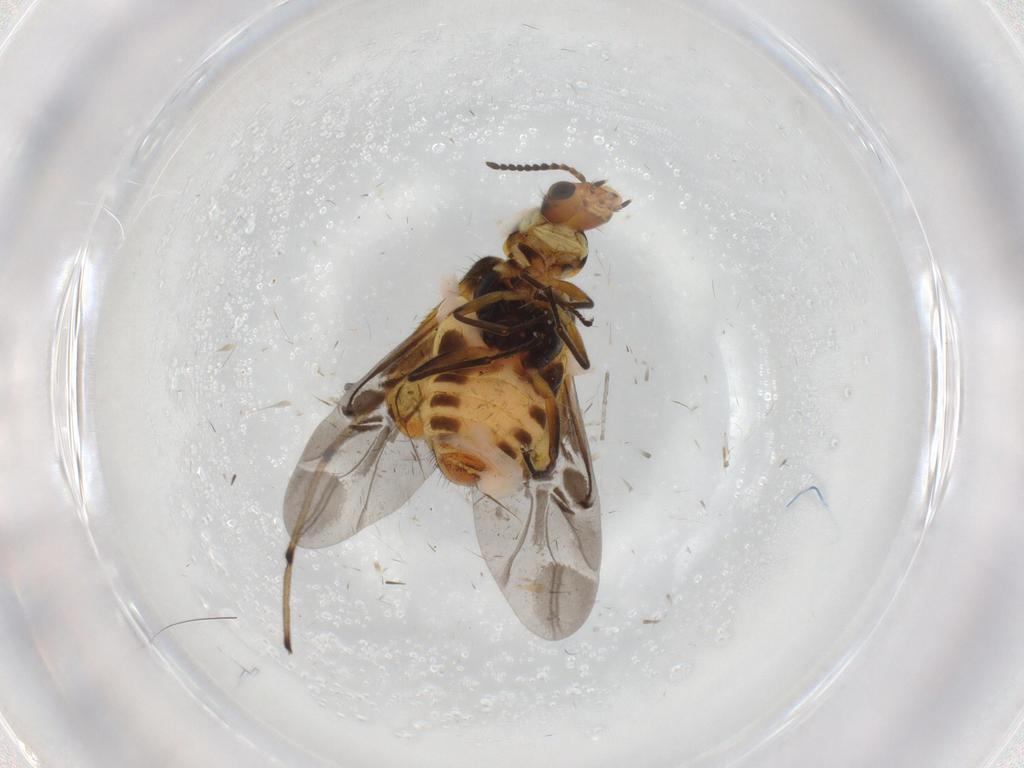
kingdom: Animalia
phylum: Arthropoda
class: Insecta
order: Coleoptera
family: Melyridae
